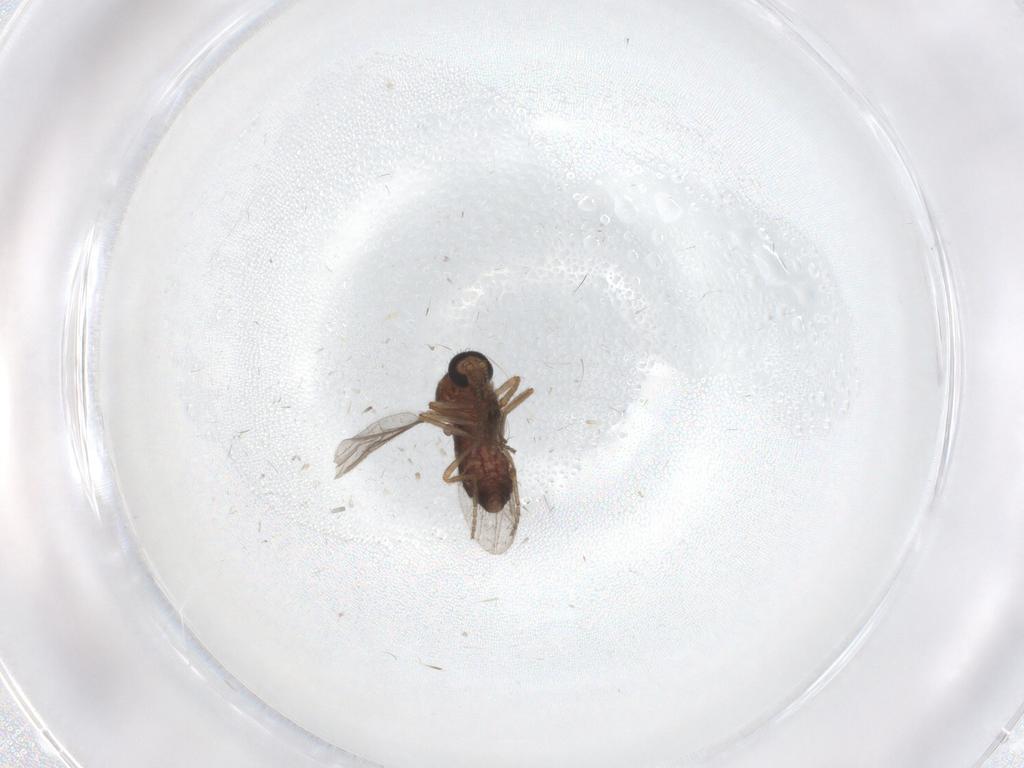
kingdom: Animalia
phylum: Arthropoda
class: Insecta
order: Diptera
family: Ceratopogonidae
